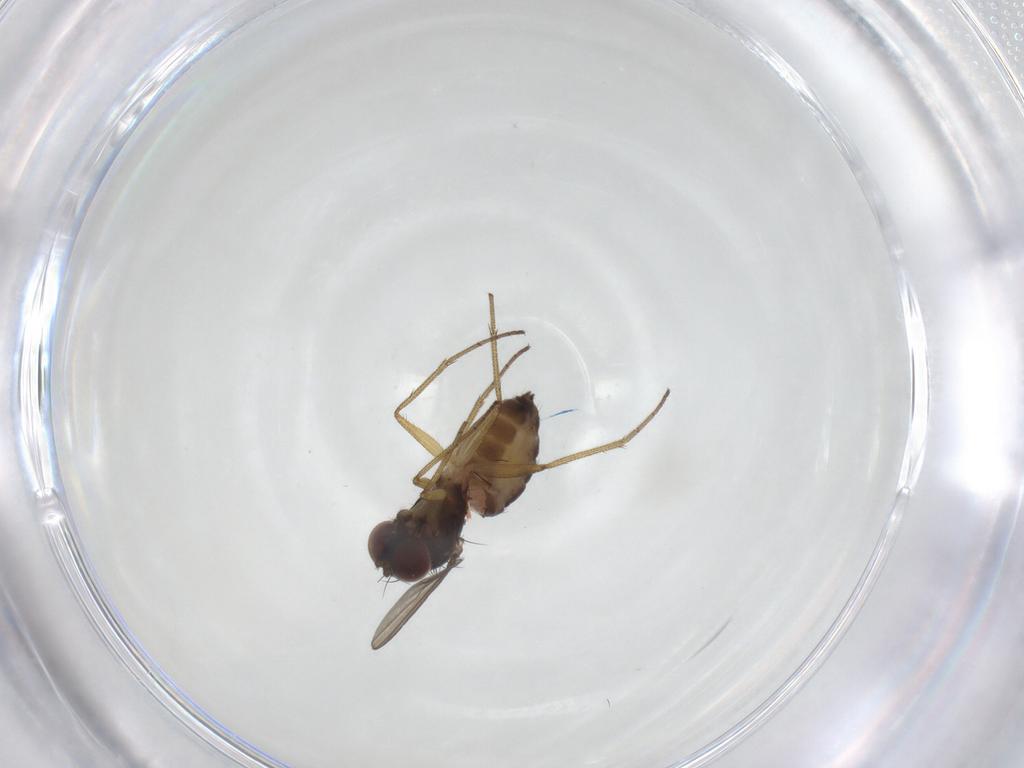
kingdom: Animalia
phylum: Arthropoda
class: Insecta
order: Diptera
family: Dolichopodidae
